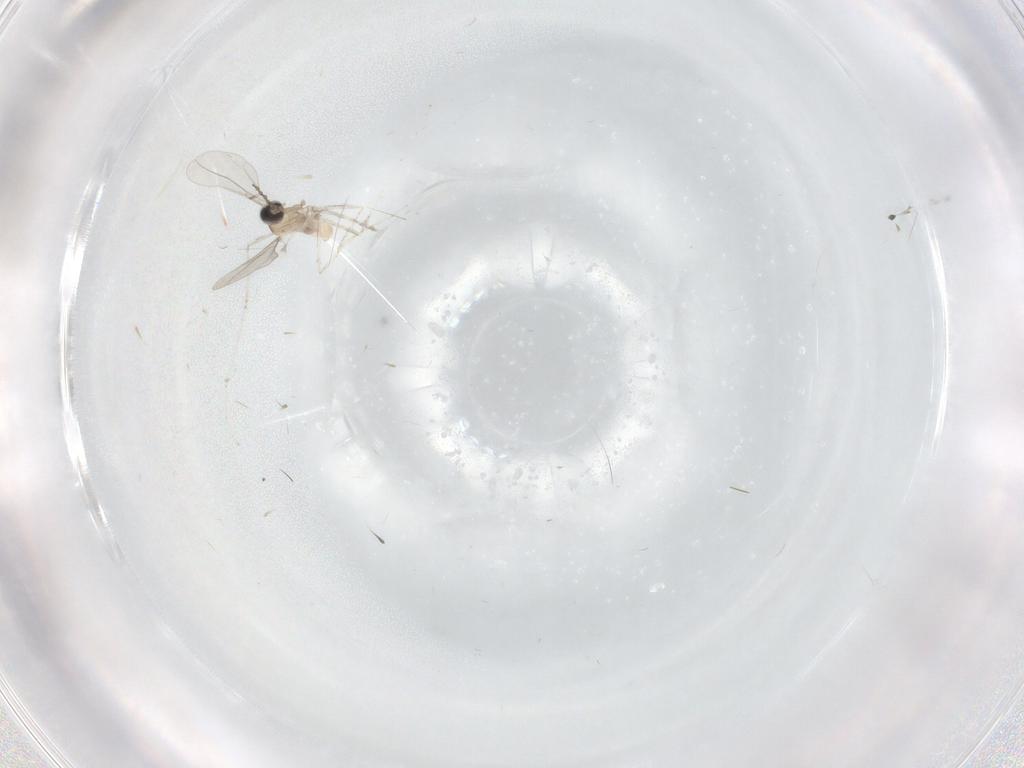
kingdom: Animalia
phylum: Arthropoda
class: Insecta
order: Diptera
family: Cecidomyiidae
